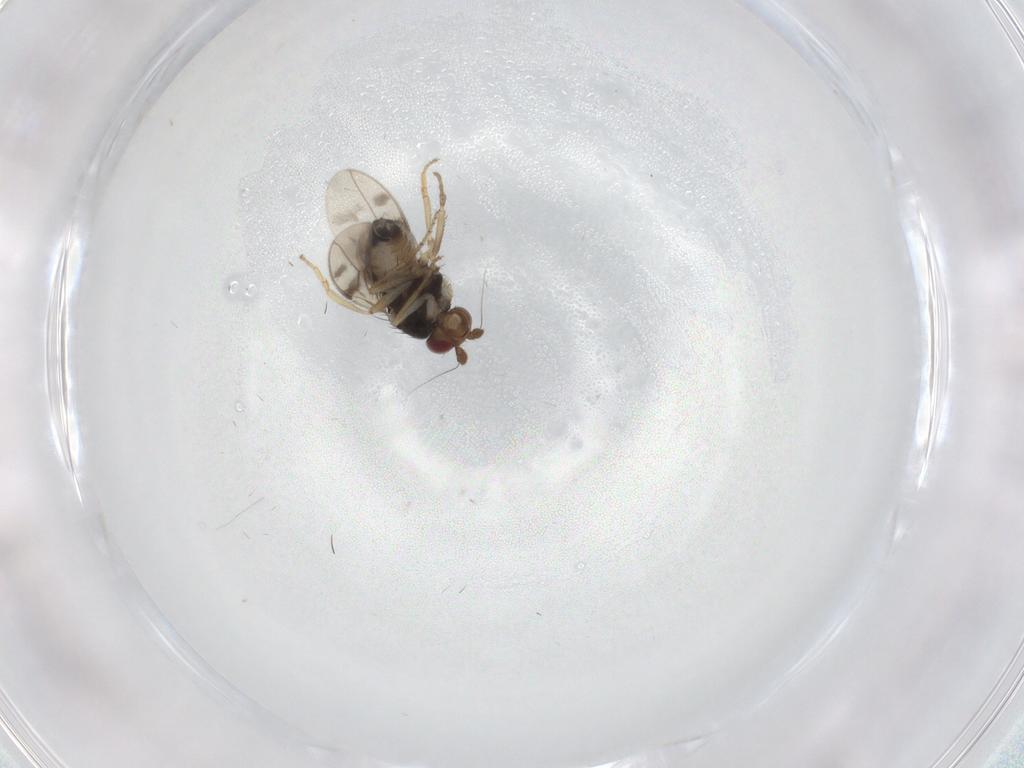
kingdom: Animalia
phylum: Arthropoda
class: Insecta
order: Diptera
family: Sphaeroceridae
